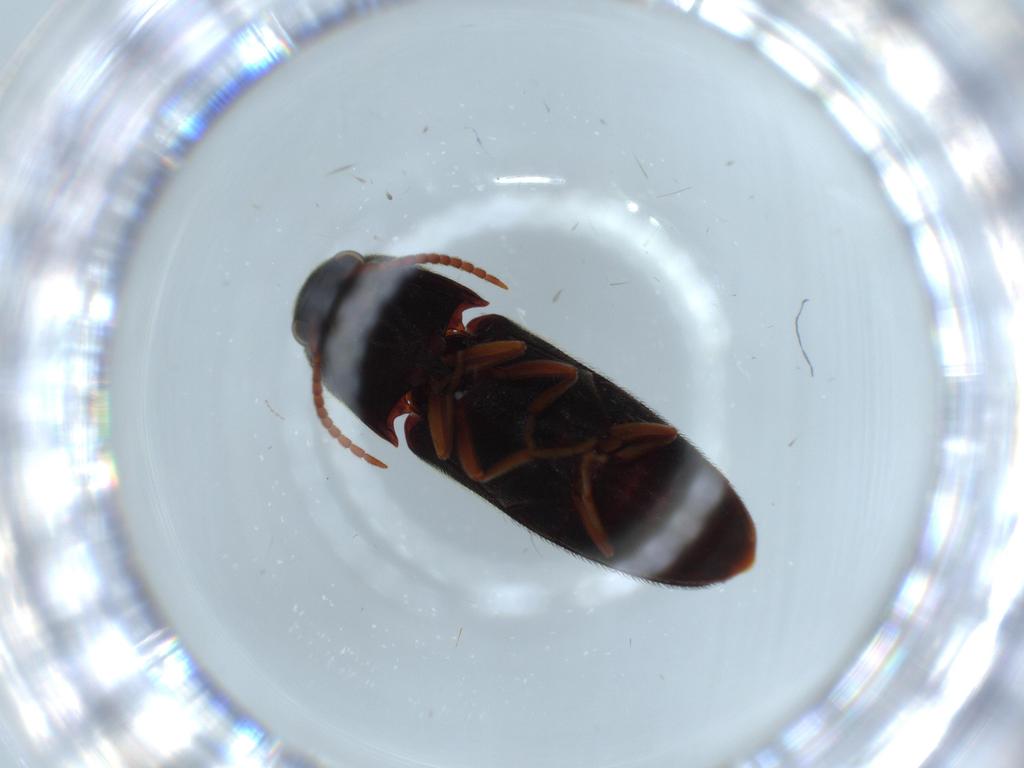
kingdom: Animalia
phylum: Arthropoda
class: Insecta
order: Coleoptera
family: Eucnemidae
